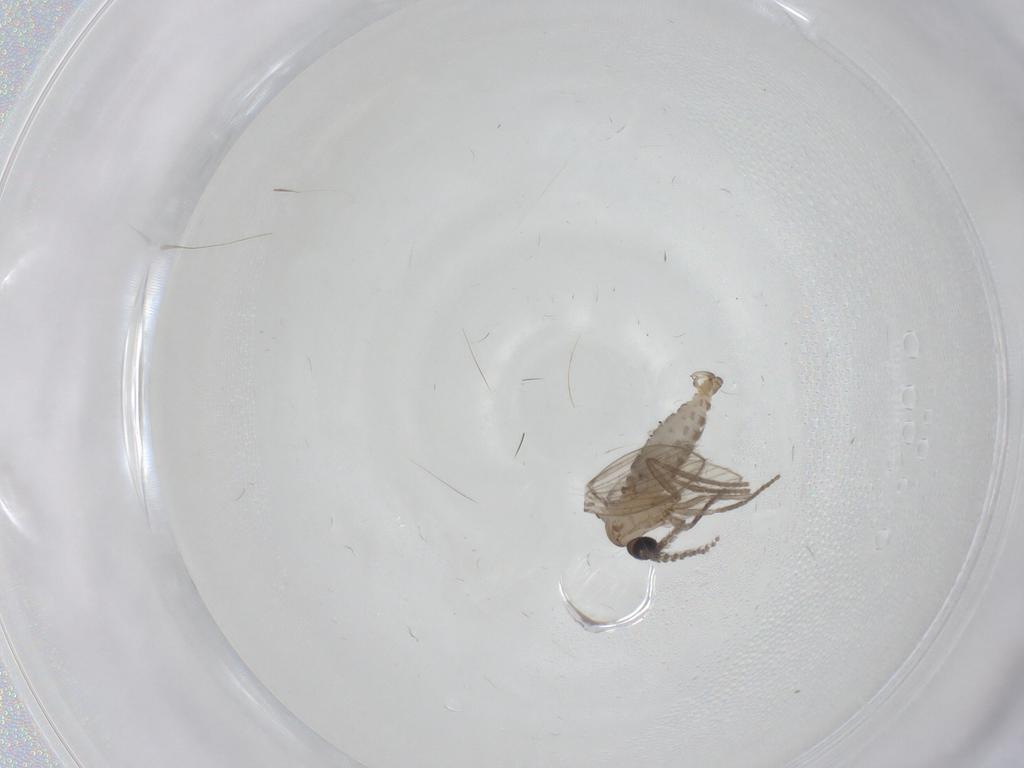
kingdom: Animalia
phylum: Arthropoda
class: Insecta
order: Diptera
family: Psychodidae
